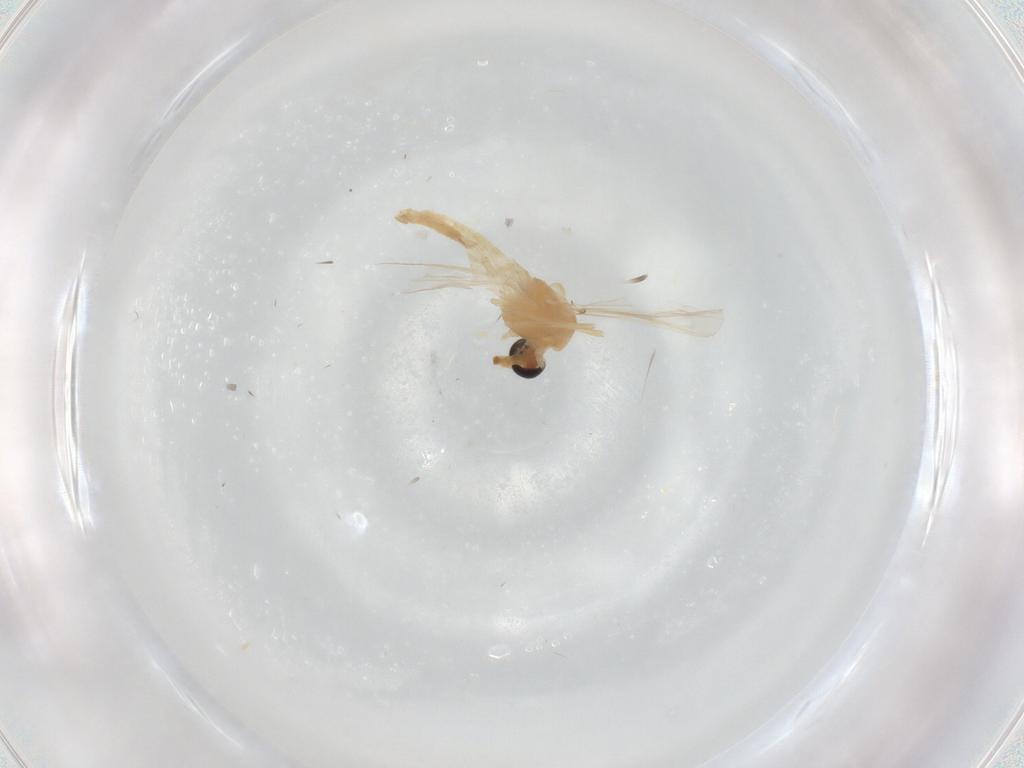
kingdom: Animalia
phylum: Arthropoda
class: Insecta
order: Diptera
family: Chironomidae
